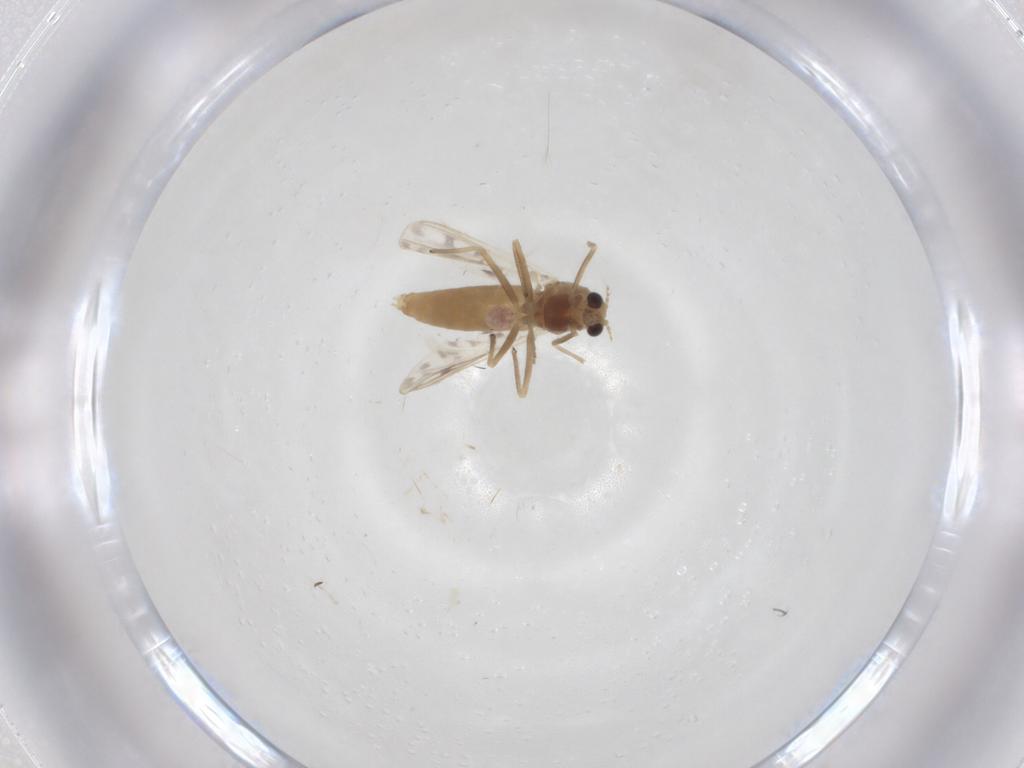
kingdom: Animalia
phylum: Arthropoda
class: Insecta
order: Diptera
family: Chironomidae
